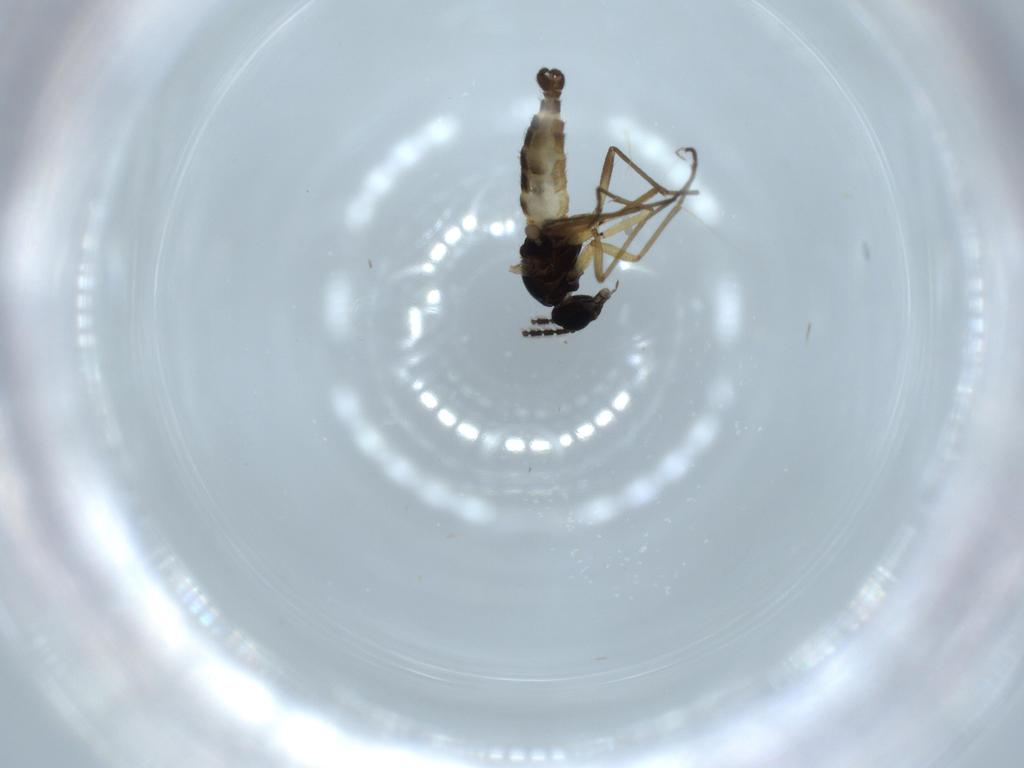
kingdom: Animalia
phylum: Arthropoda
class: Insecta
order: Diptera
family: Sciaridae
